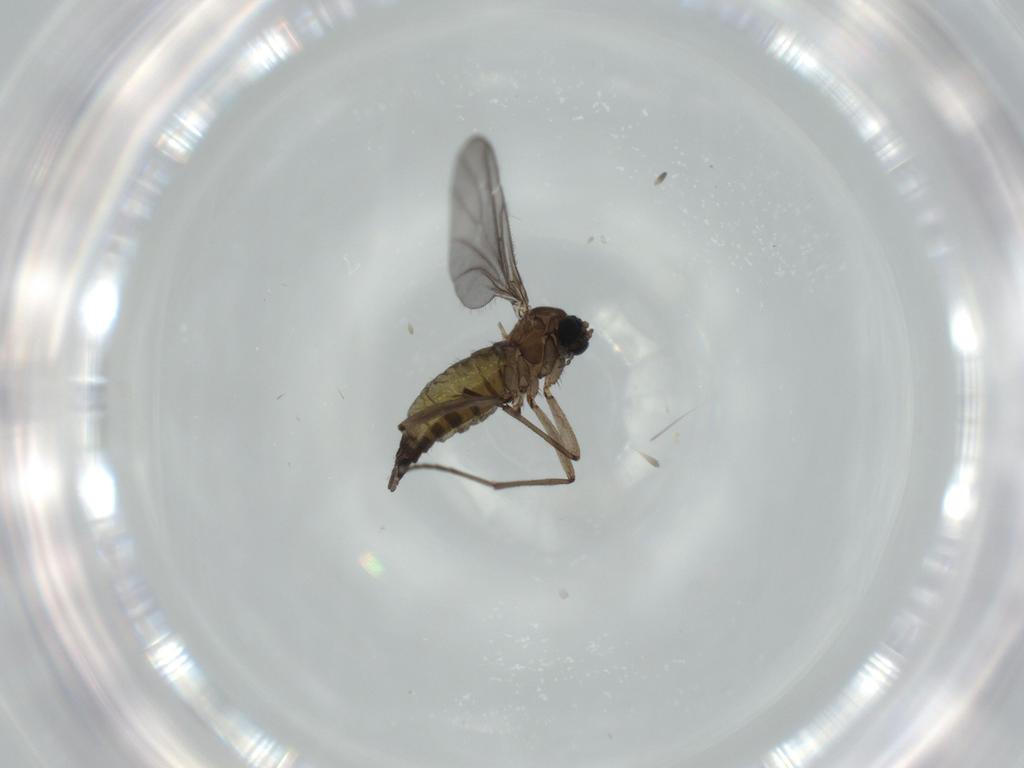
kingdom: Animalia
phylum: Arthropoda
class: Insecta
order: Diptera
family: Sciaridae
